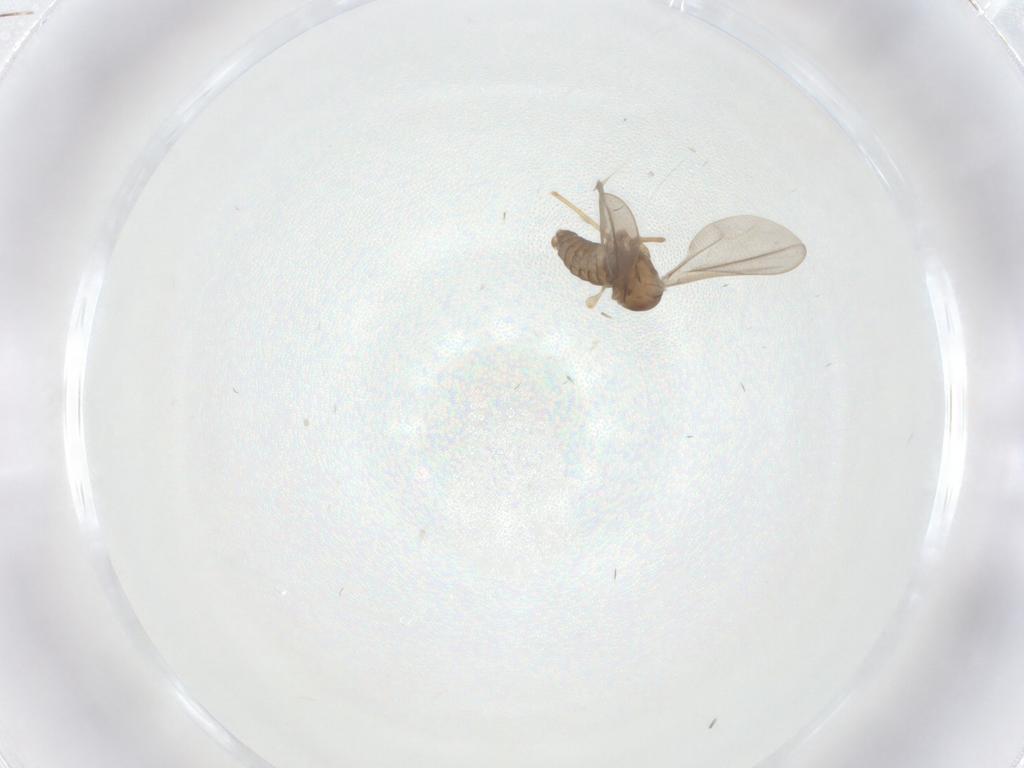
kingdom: Animalia
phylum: Arthropoda
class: Insecta
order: Diptera
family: Cecidomyiidae
